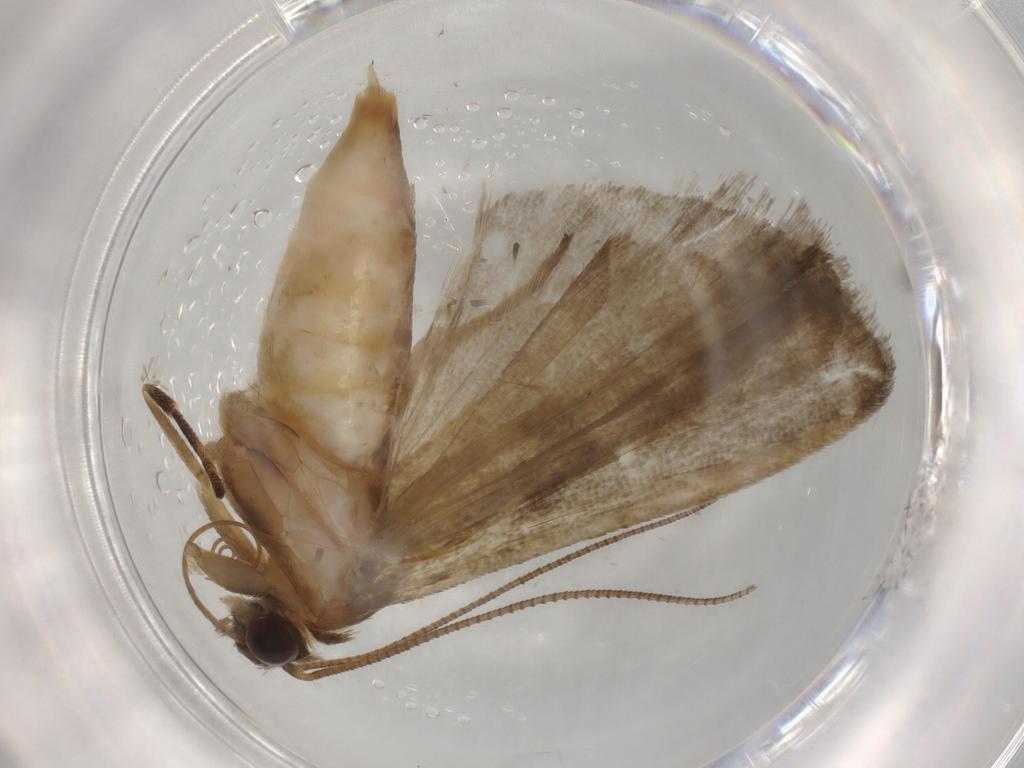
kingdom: Animalia
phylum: Arthropoda
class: Insecta
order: Lepidoptera
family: Noctuidae
